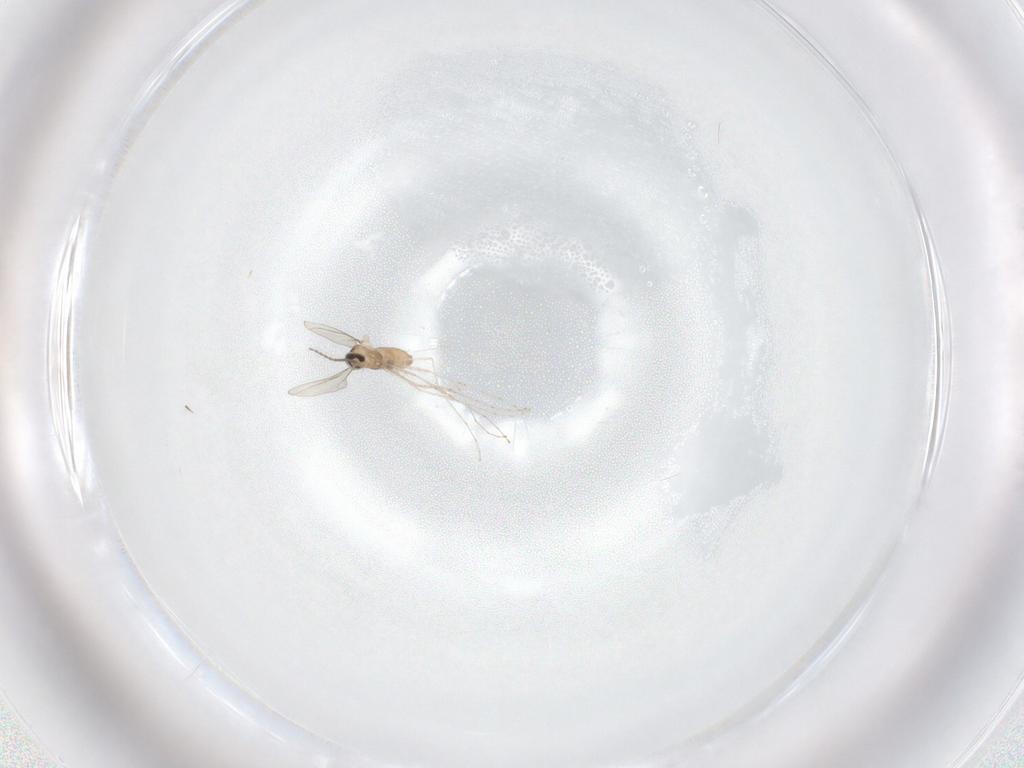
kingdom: Animalia
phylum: Arthropoda
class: Insecta
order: Diptera
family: Cecidomyiidae
